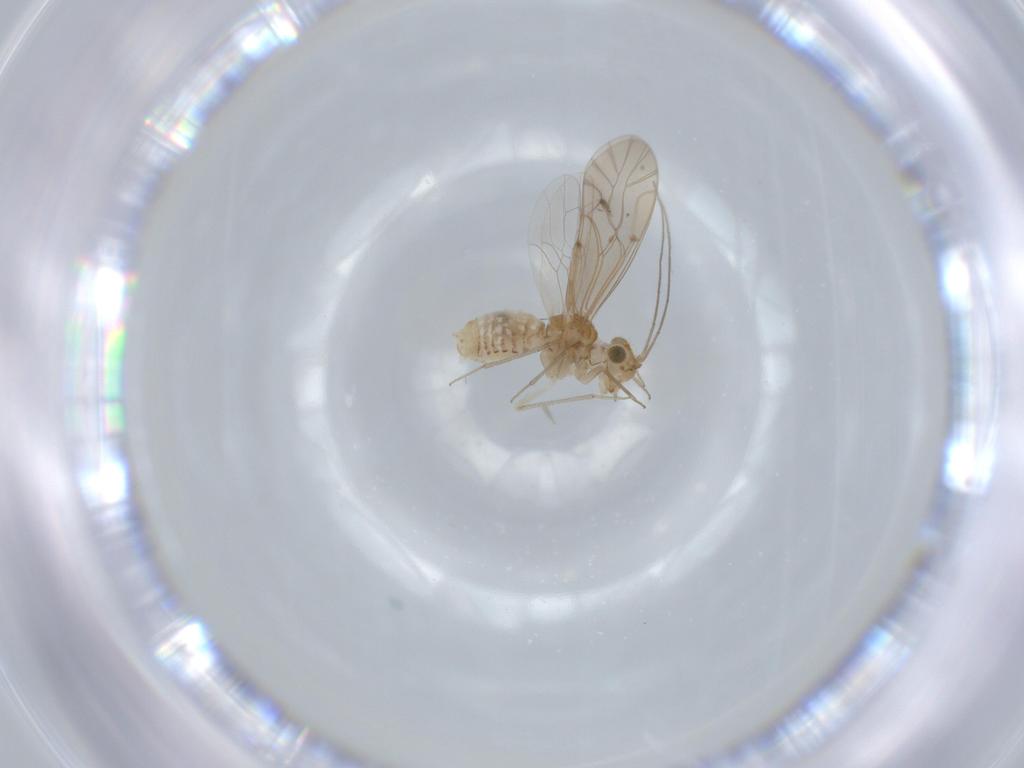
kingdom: Animalia
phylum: Arthropoda
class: Insecta
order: Psocodea
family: Lachesillidae
